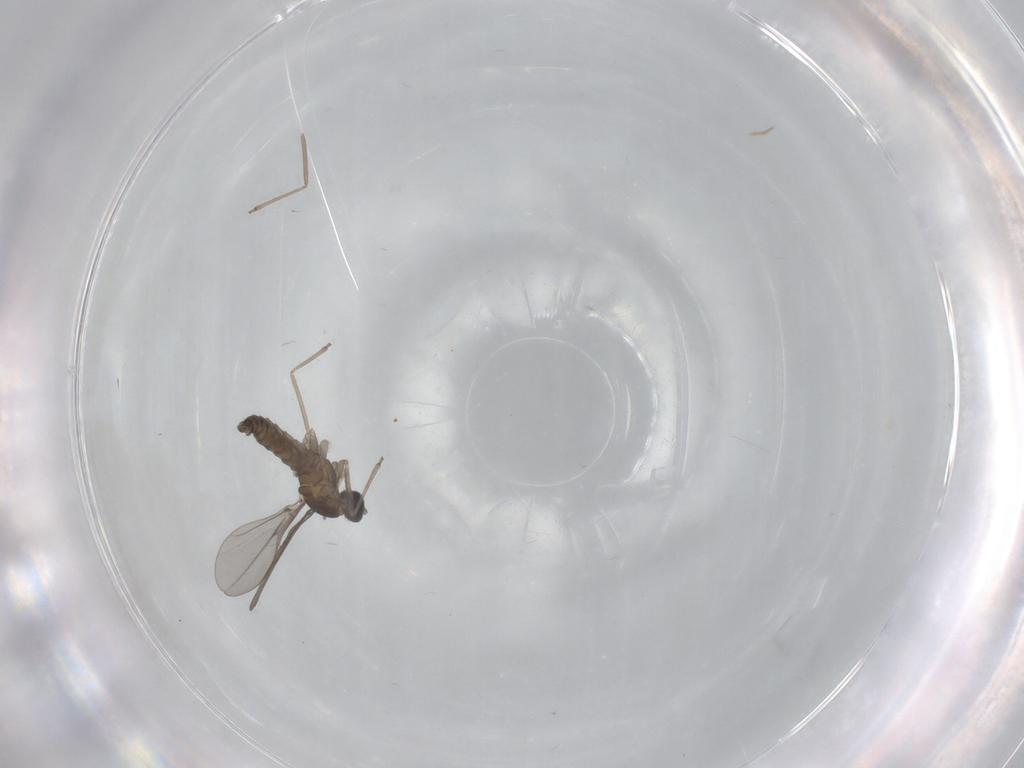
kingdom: Animalia
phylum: Arthropoda
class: Insecta
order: Diptera
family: Cecidomyiidae
